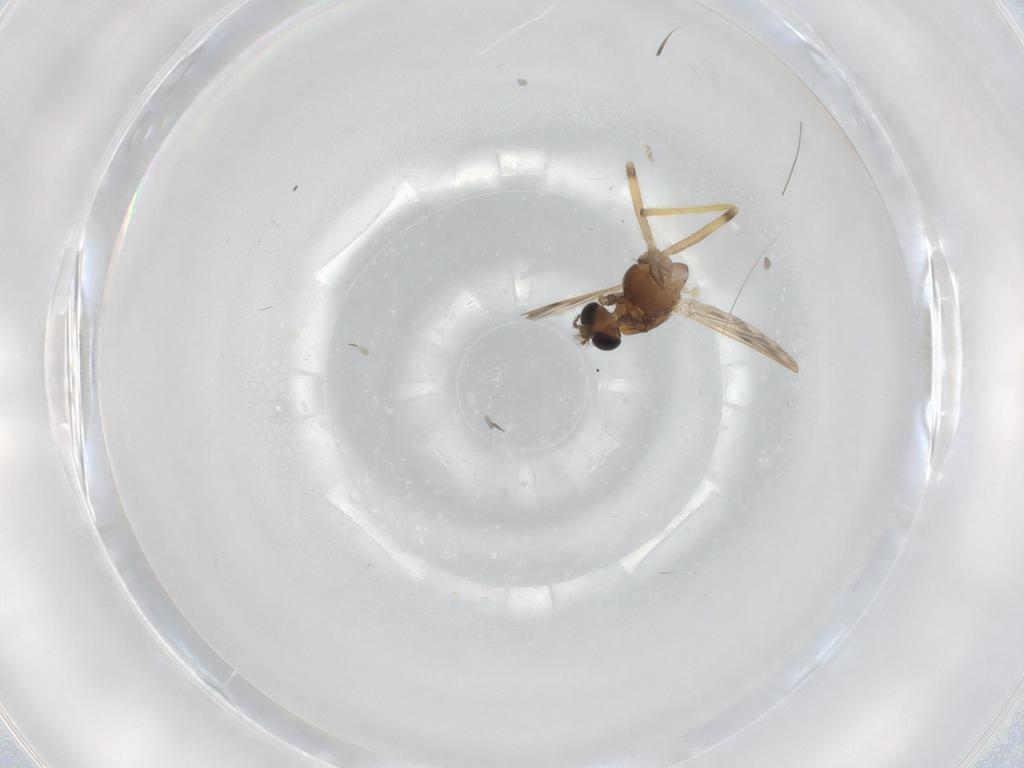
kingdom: Animalia
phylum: Arthropoda
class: Insecta
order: Diptera
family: Chironomidae
